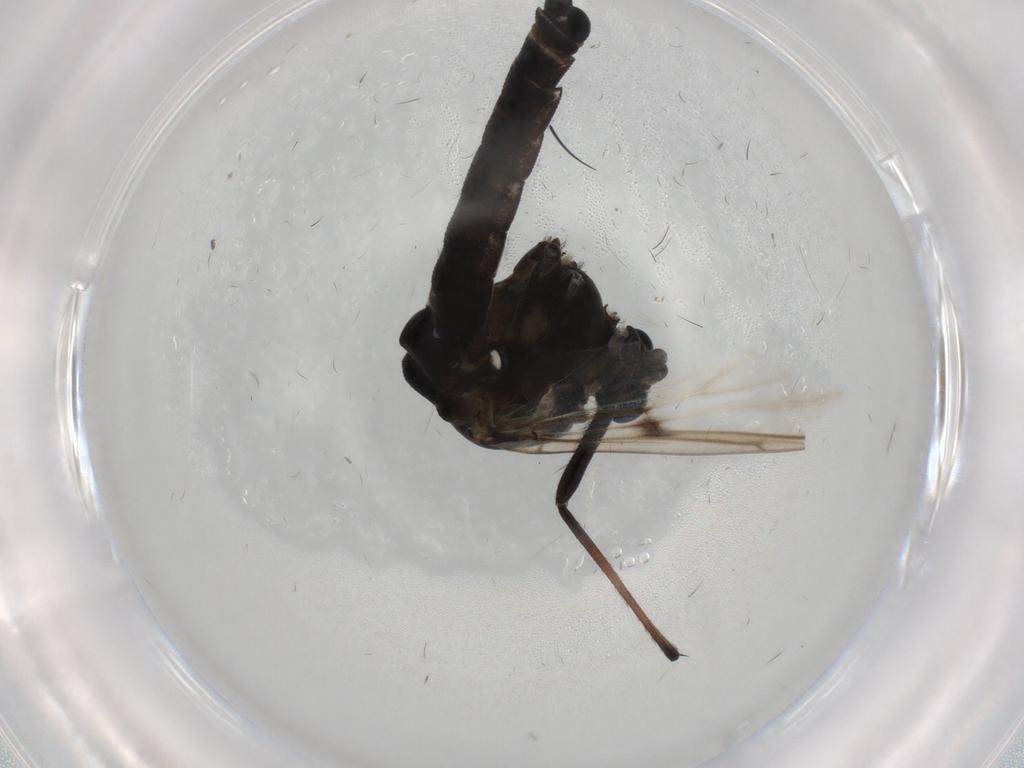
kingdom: Animalia
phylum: Arthropoda
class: Insecta
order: Diptera
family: Chironomidae
